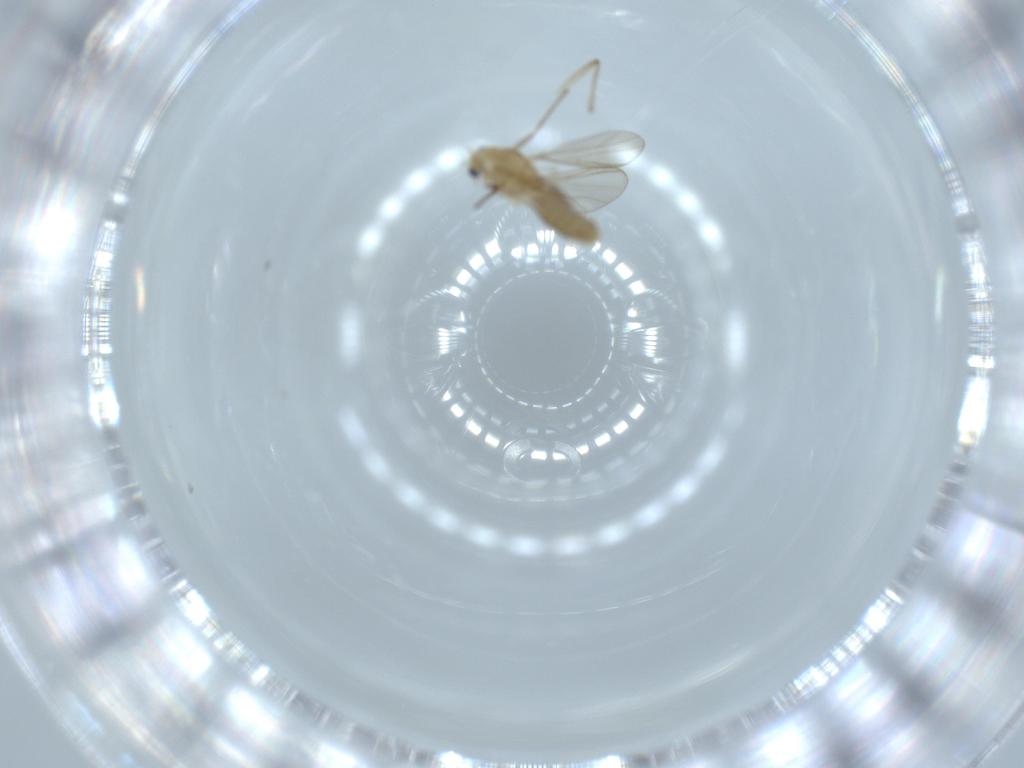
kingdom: Animalia
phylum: Arthropoda
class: Insecta
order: Diptera
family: Chironomidae
